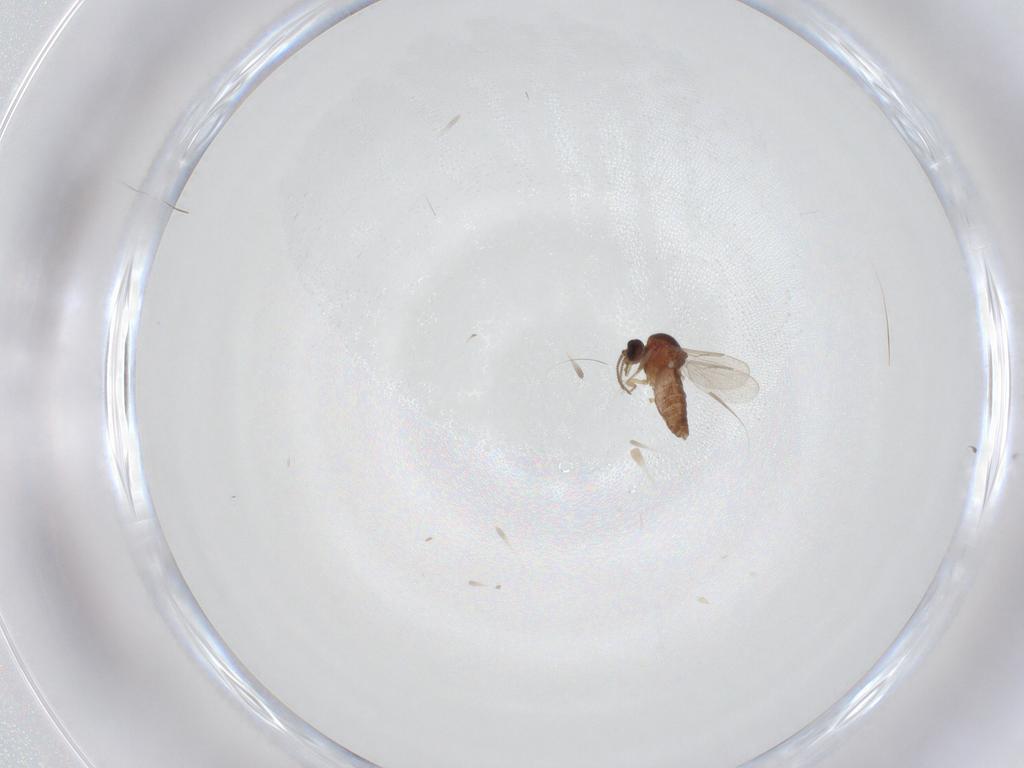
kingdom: Animalia
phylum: Arthropoda
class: Insecta
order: Diptera
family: Ceratopogonidae
